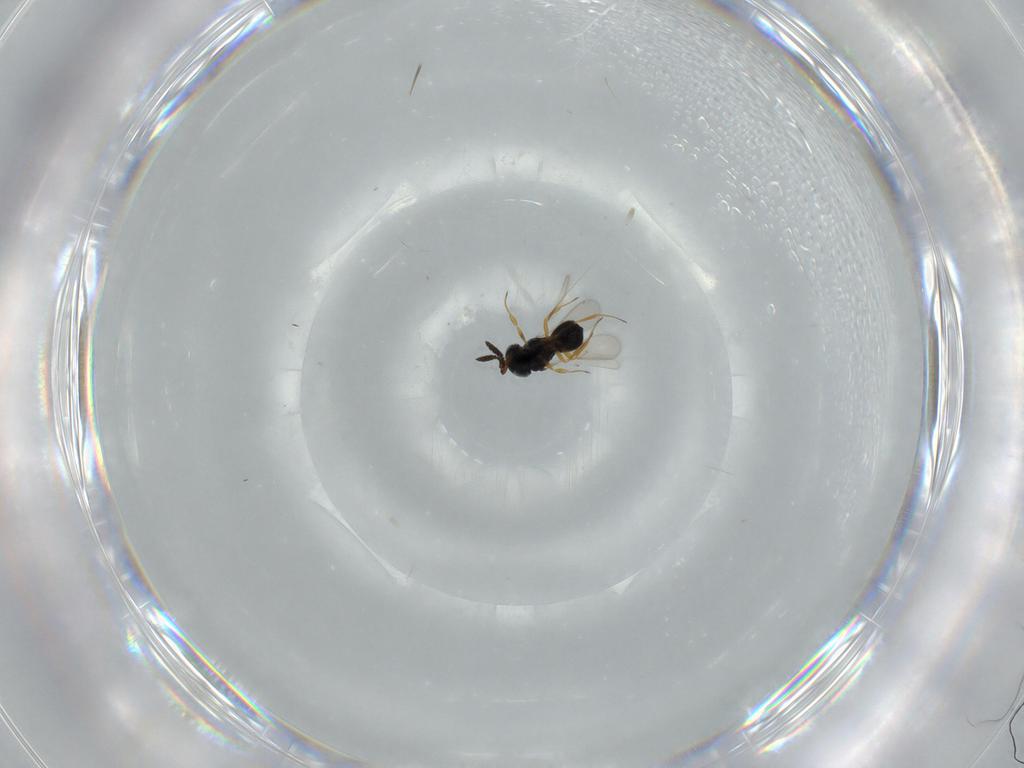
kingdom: Animalia
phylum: Arthropoda
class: Insecta
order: Hymenoptera
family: Scelionidae
